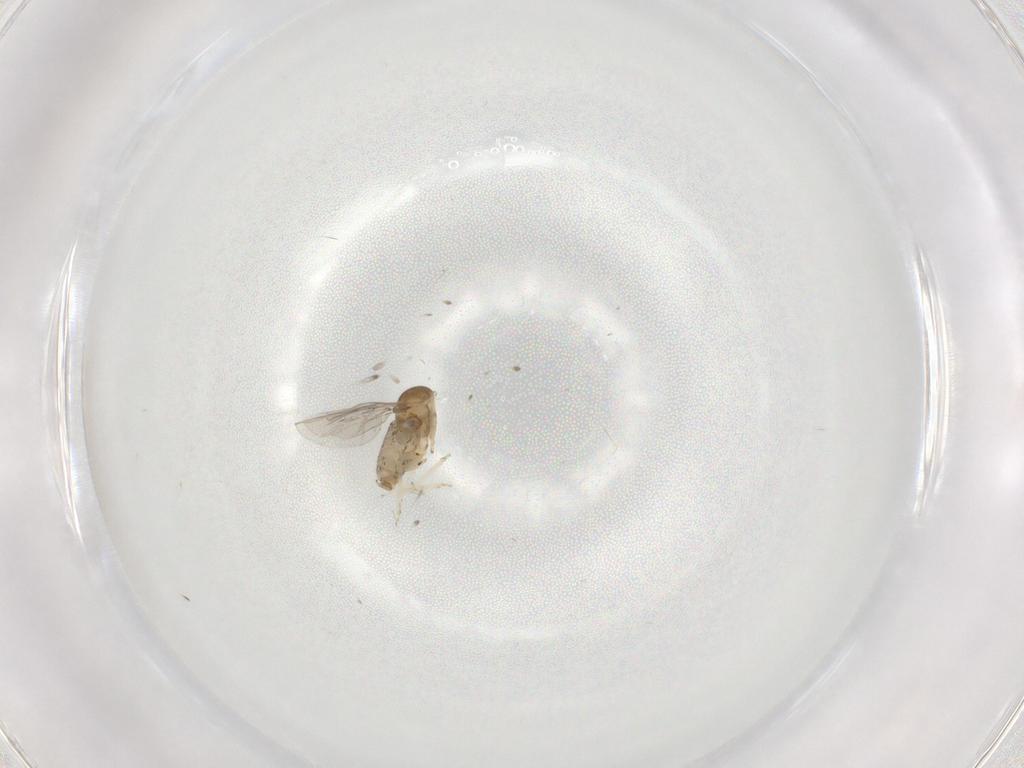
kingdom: Animalia
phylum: Arthropoda
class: Insecta
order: Diptera
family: Cecidomyiidae
